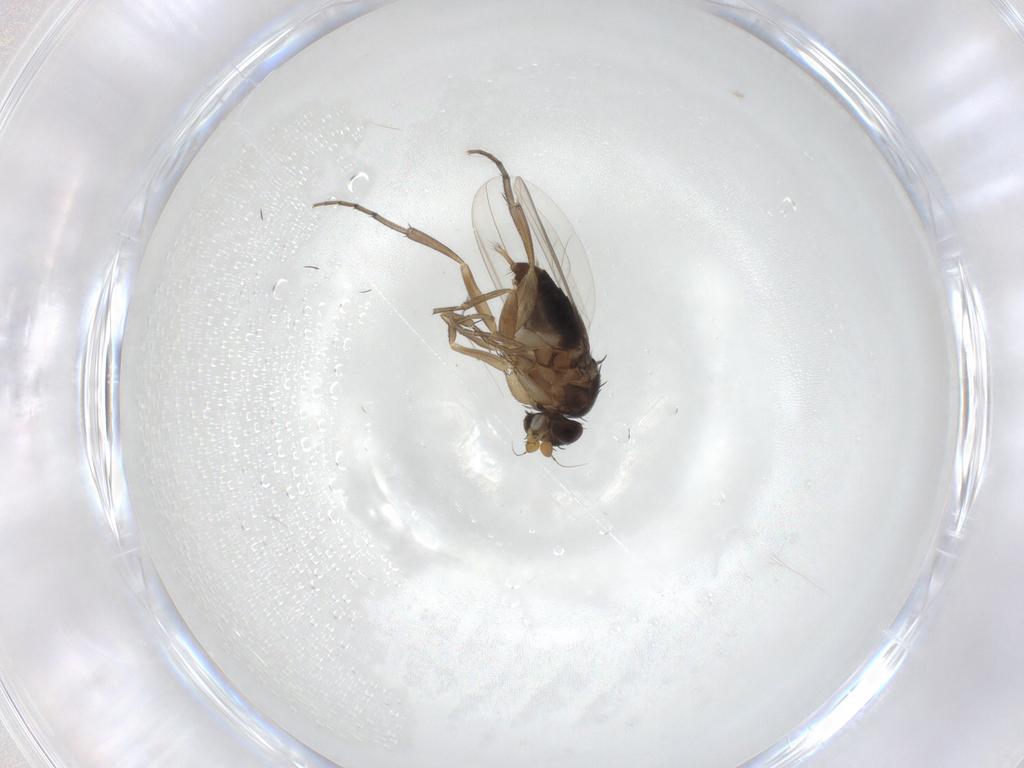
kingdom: Animalia
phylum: Arthropoda
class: Insecta
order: Diptera
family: Phoridae
